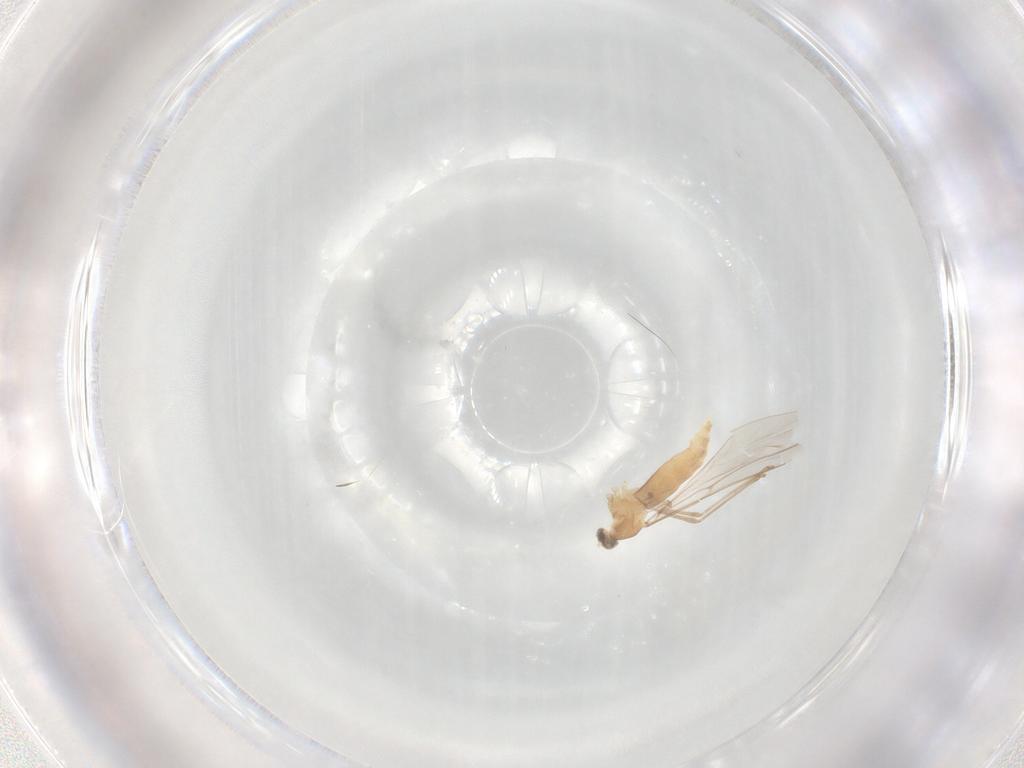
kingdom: Animalia
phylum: Arthropoda
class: Insecta
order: Diptera
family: Cecidomyiidae
